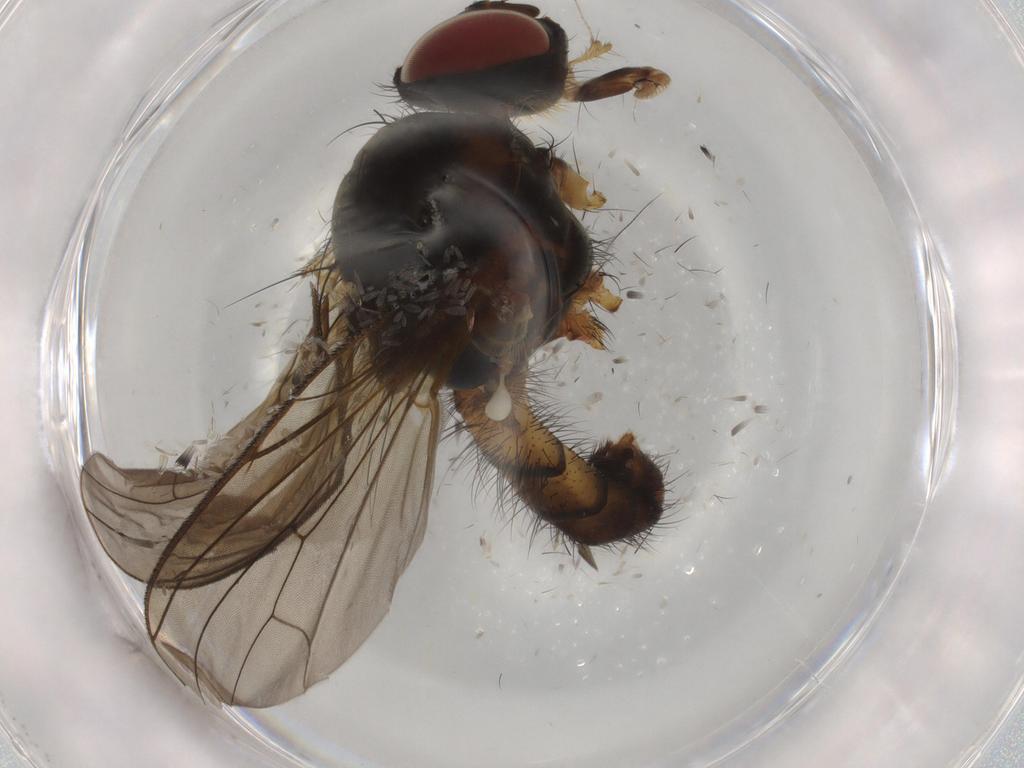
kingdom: Animalia
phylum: Arthropoda
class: Insecta
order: Diptera
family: Anthomyiidae
